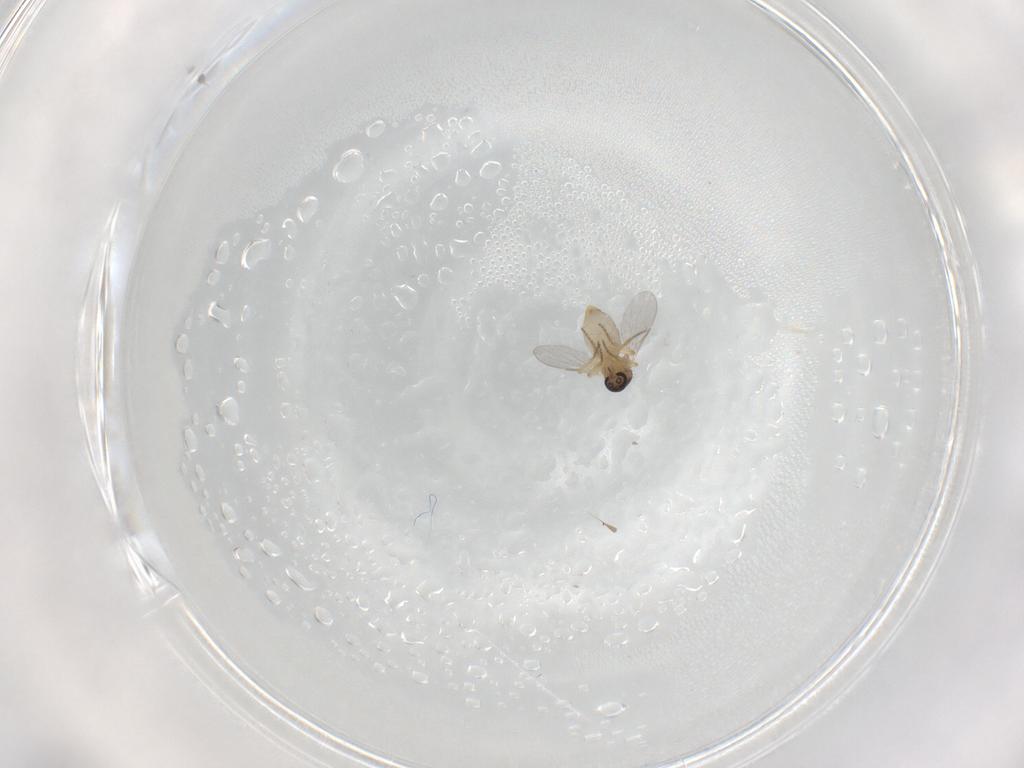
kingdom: Animalia
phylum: Arthropoda
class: Insecta
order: Diptera
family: Ceratopogonidae
